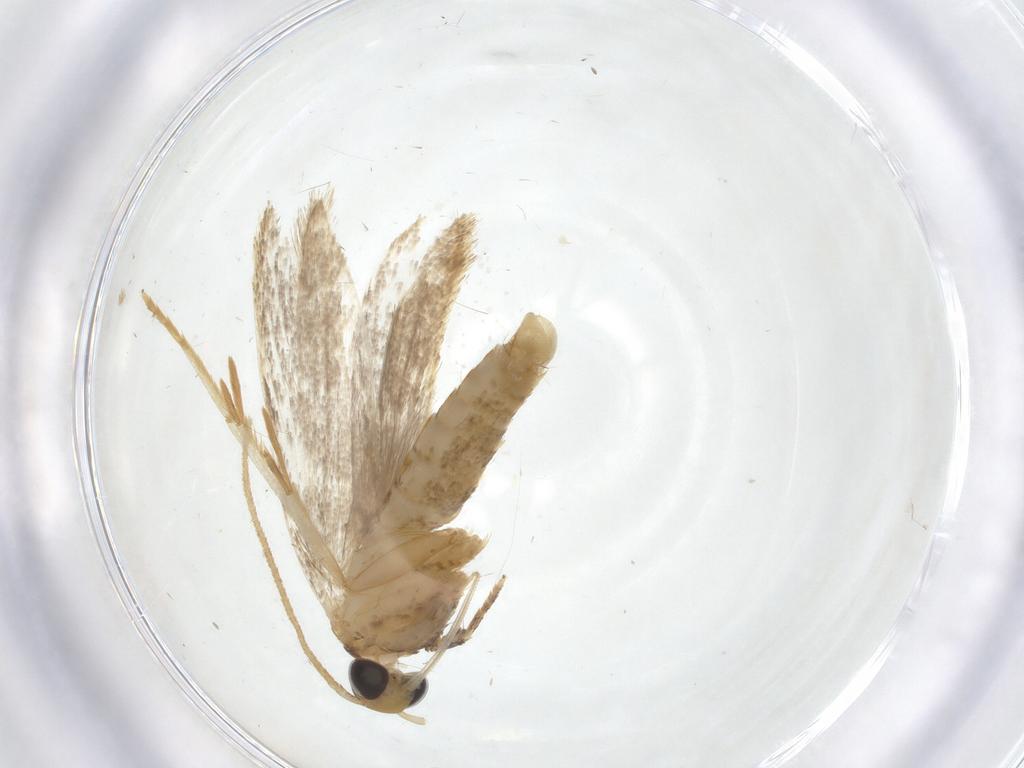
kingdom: Animalia
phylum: Arthropoda
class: Insecta
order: Lepidoptera
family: Oecophoridae
